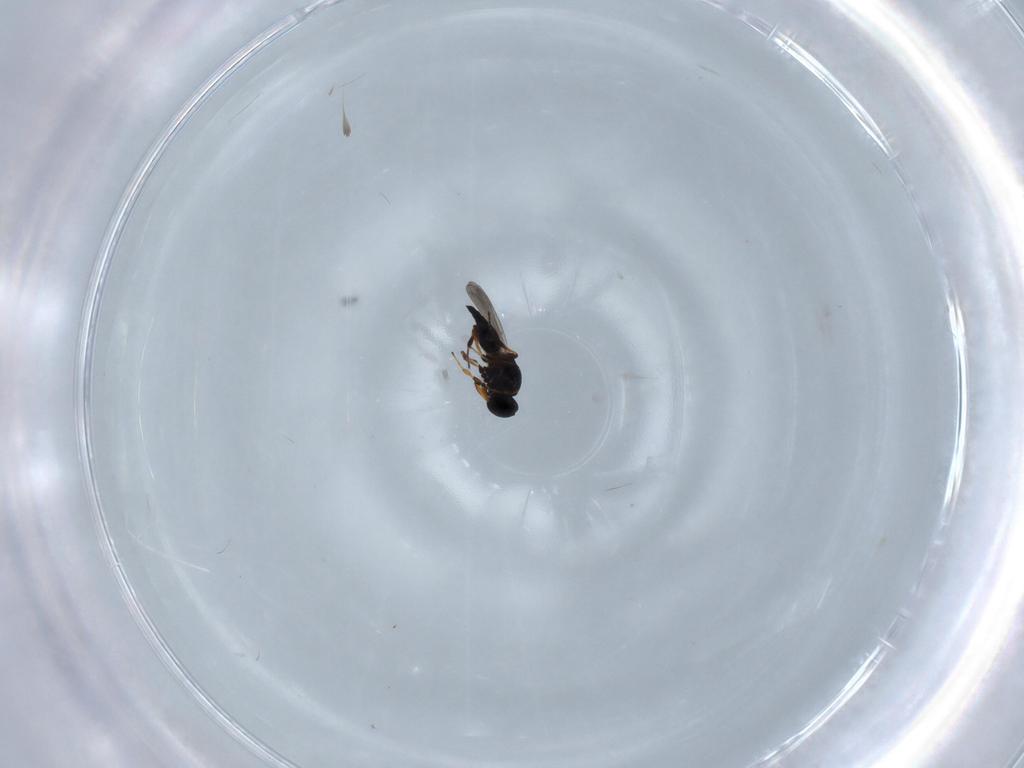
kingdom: Animalia
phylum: Arthropoda
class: Insecta
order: Hymenoptera
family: Platygastridae
